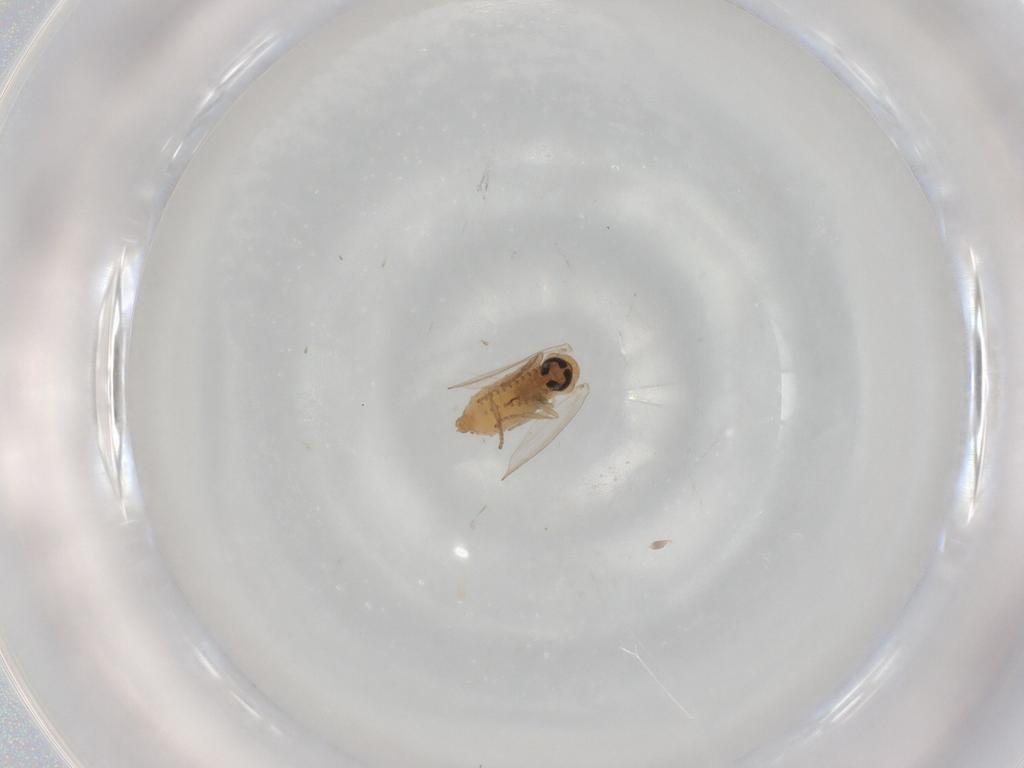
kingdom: Animalia
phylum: Arthropoda
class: Insecta
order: Diptera
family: Psychodidae
